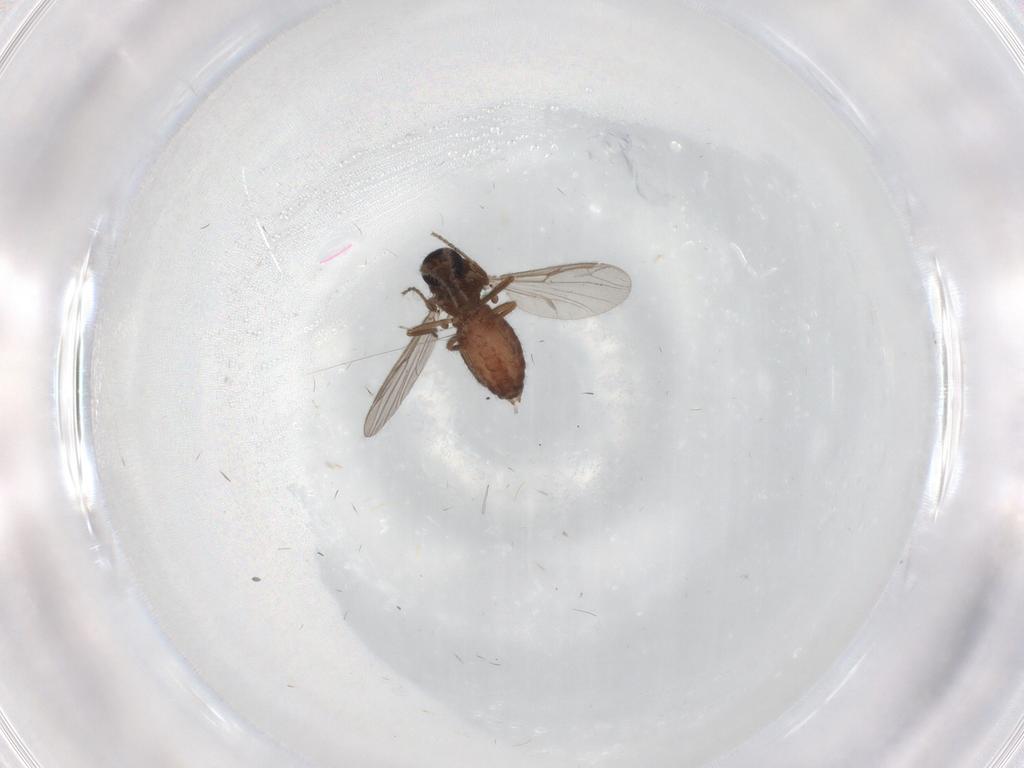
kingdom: Animalia
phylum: Arthropoda
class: Insecta
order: Diptera
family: Ceratopogonidae
